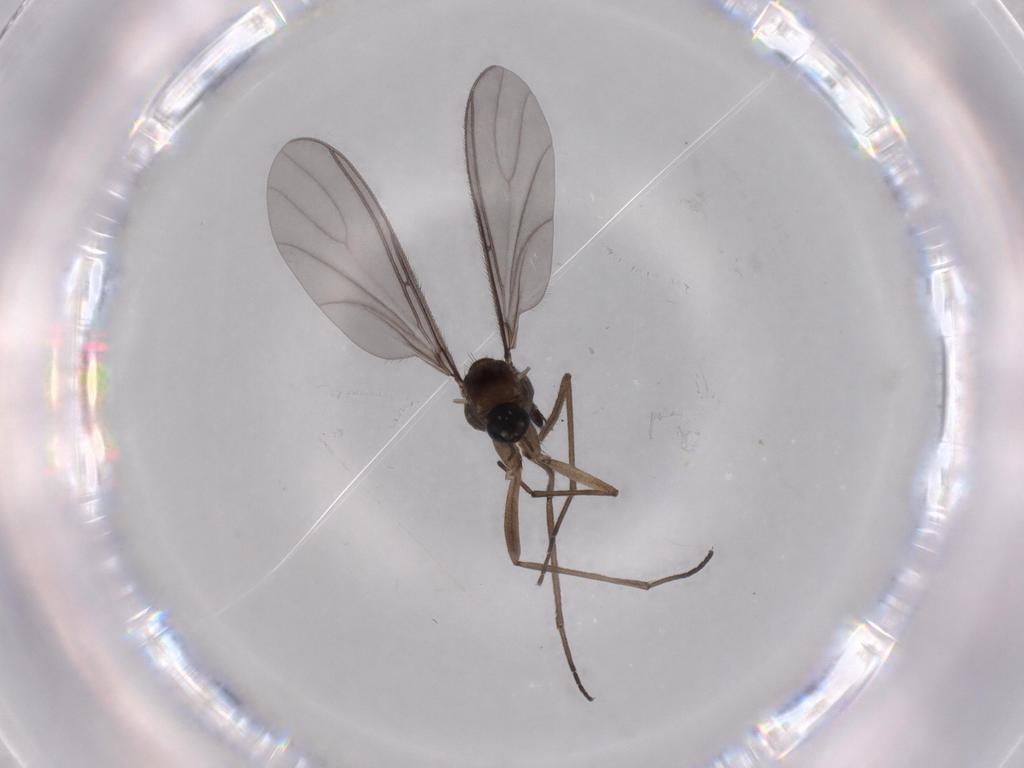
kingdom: Animalia
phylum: Arthropoda
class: Insecta
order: Diptera
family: Sciaridae
